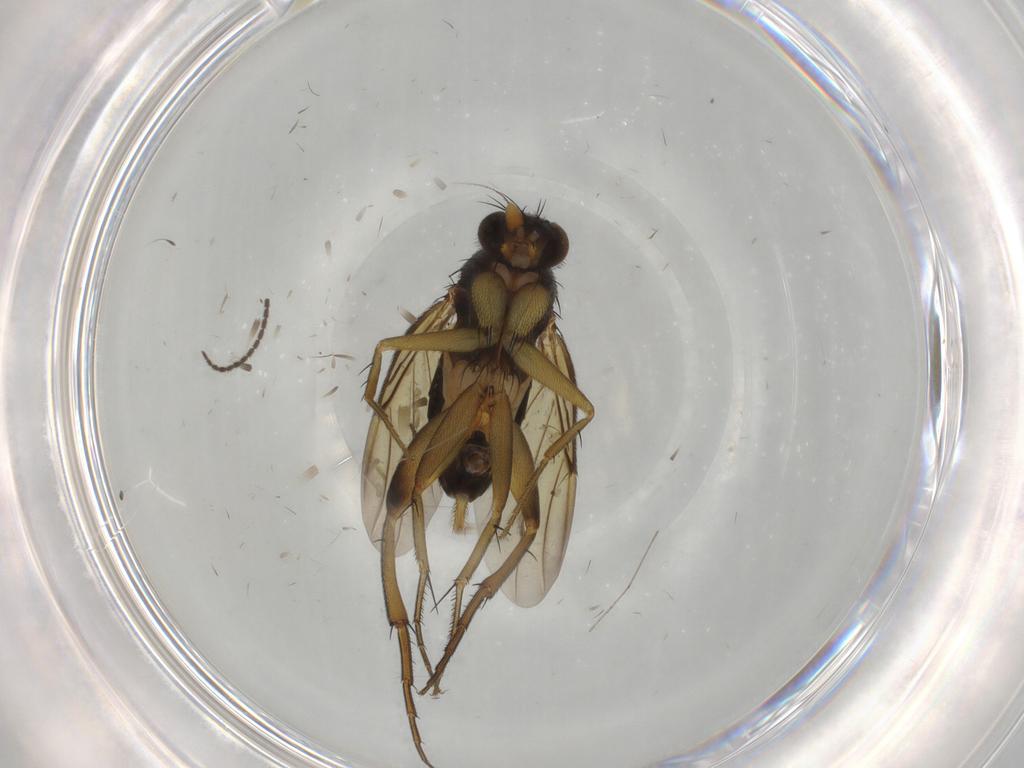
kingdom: Animalia
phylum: Arthropoda
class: Insecta
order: Diptera
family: Phoridae
